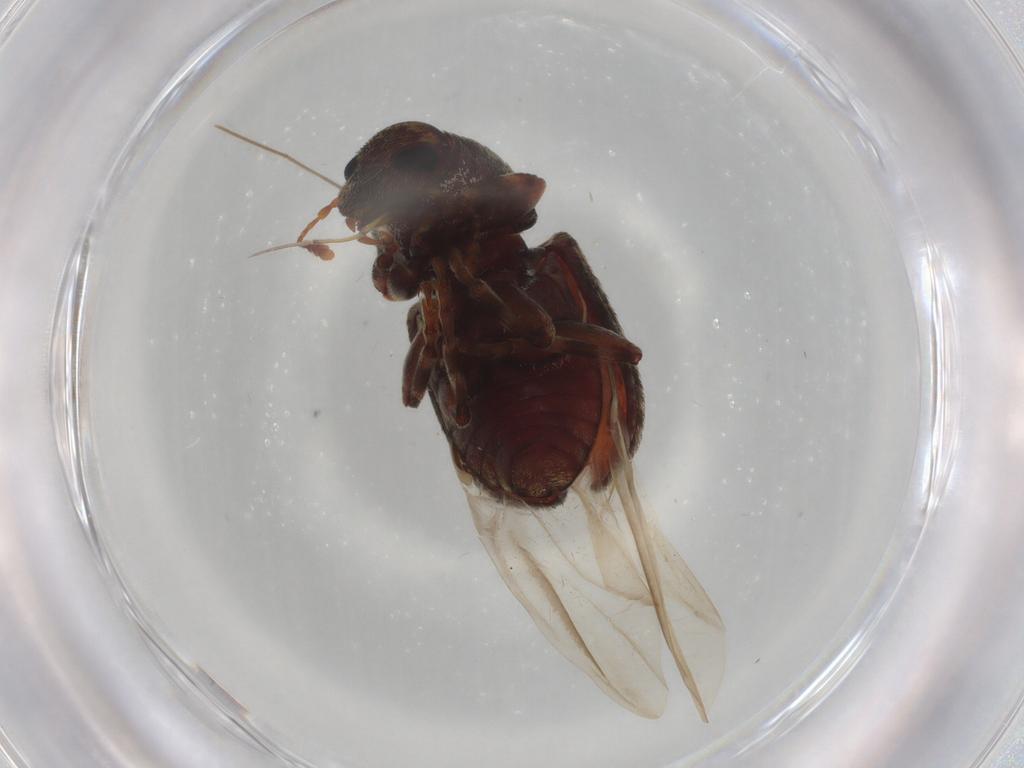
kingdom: Animalia
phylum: Arthropoda
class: Insecta
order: Coleoptera
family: Anthribidae
